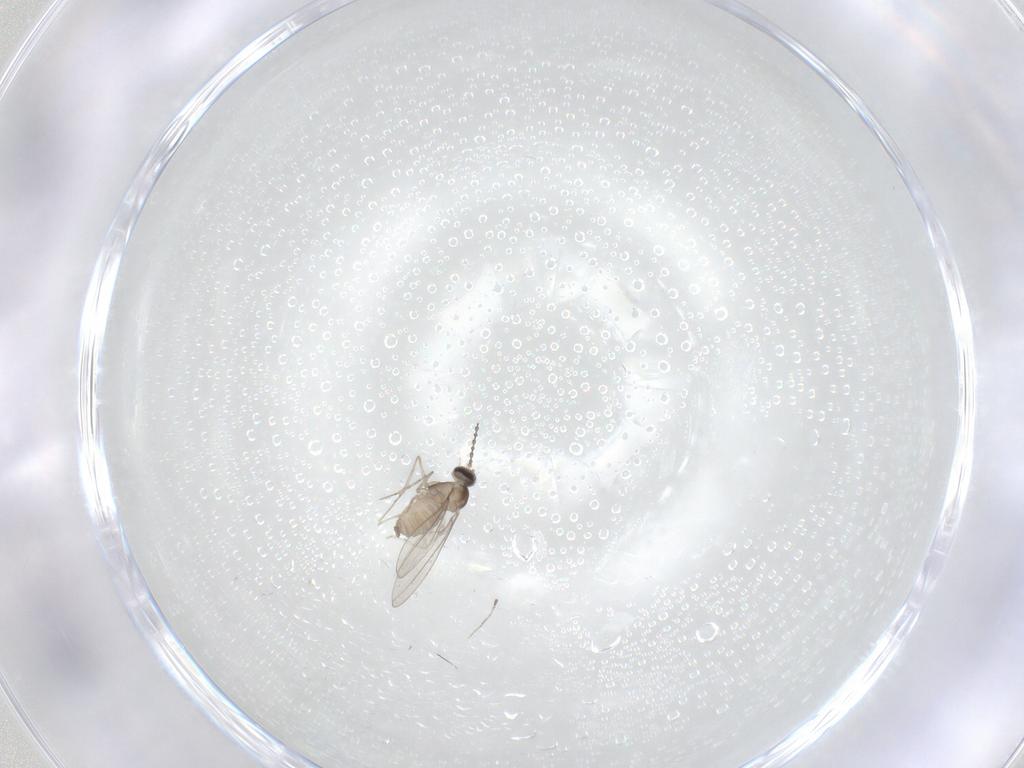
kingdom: Animalia
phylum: Arthropoda
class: Insecta
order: Diptera
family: Cecidomyiidae
